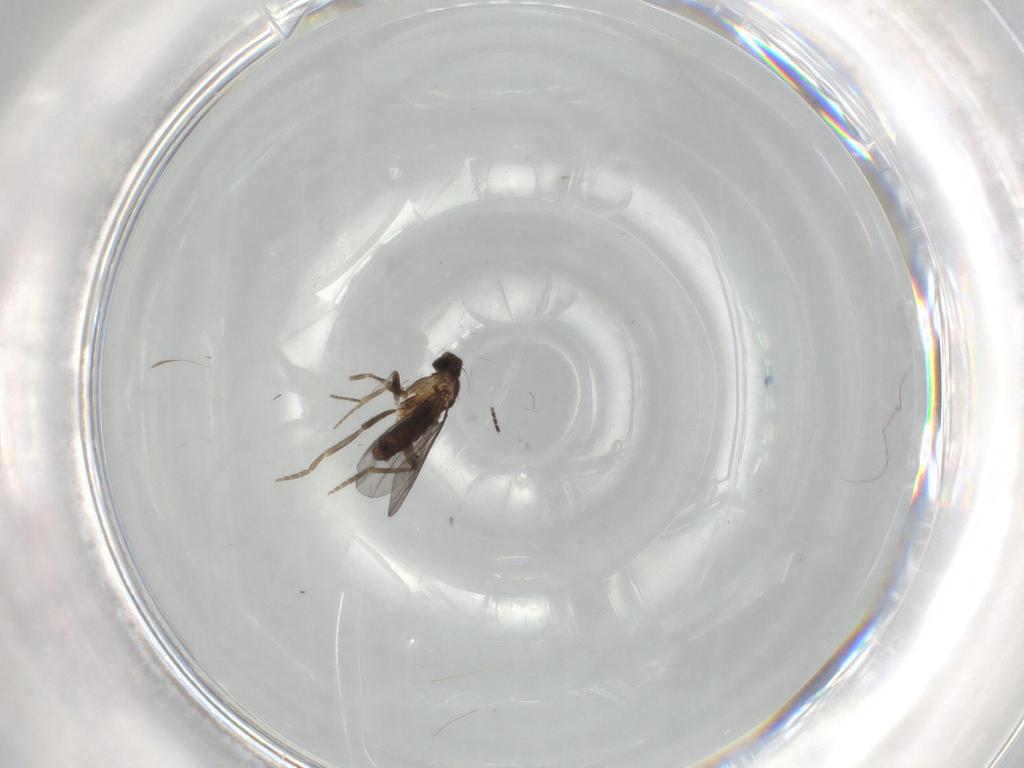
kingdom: Animalia
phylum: Arthropoda
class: Insecta
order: Diptera
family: Sciaridae
